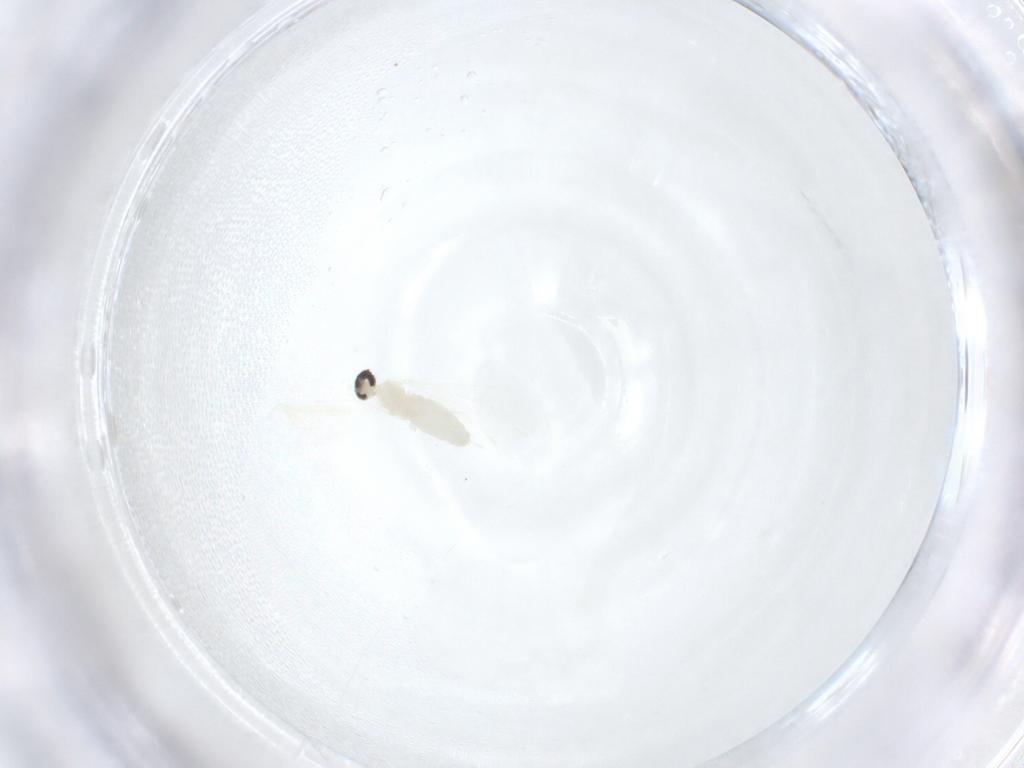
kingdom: Animalia
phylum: Arthropoda
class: Insecta
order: Diptera
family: Cecidomyiidae
